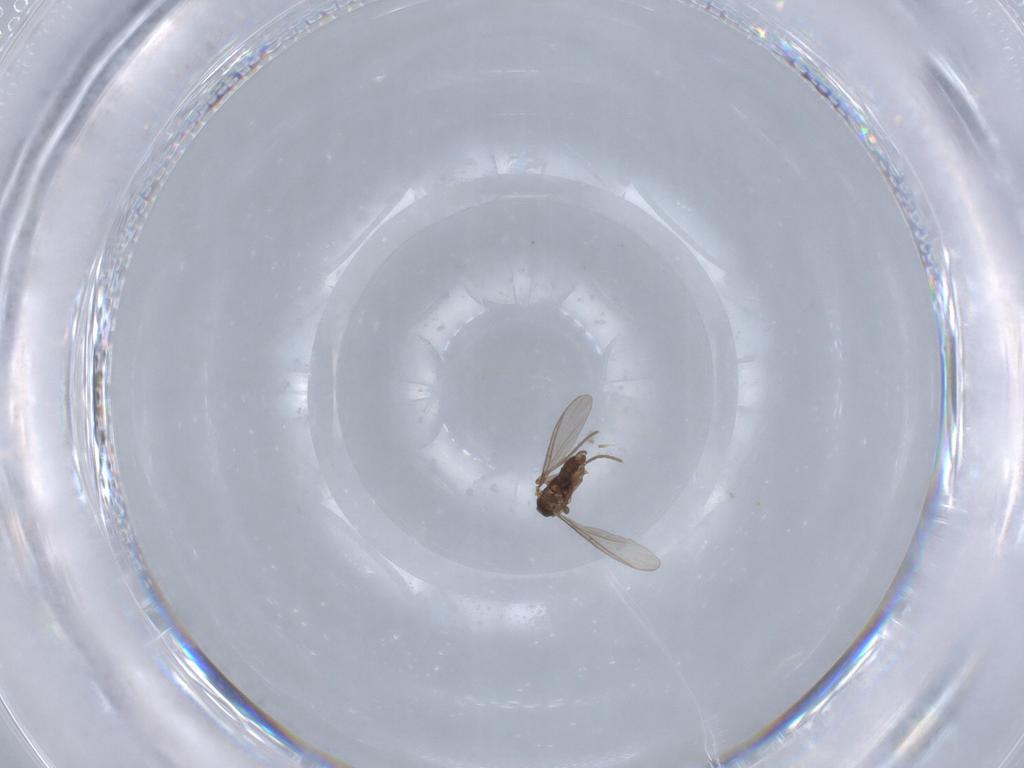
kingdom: Animalia
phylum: Arthropoda
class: Insecta
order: Diptera
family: Sciaridae
